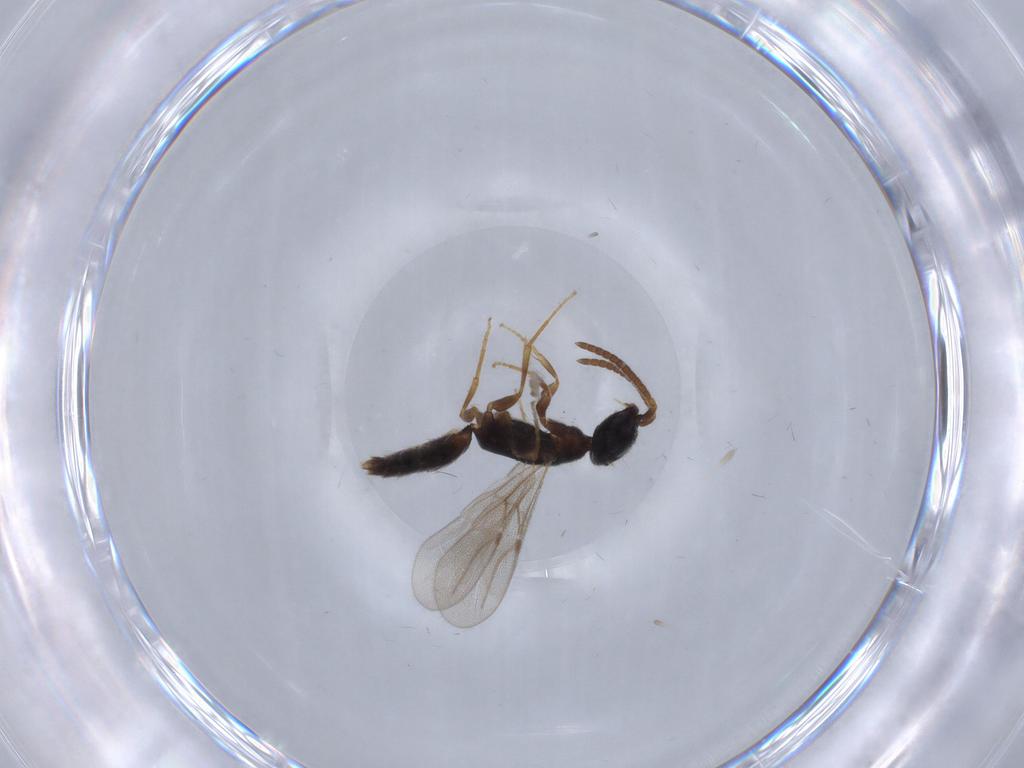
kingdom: Animalia
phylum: Arthropoda
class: Insecta
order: Hymenoptera
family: Bethylidae
